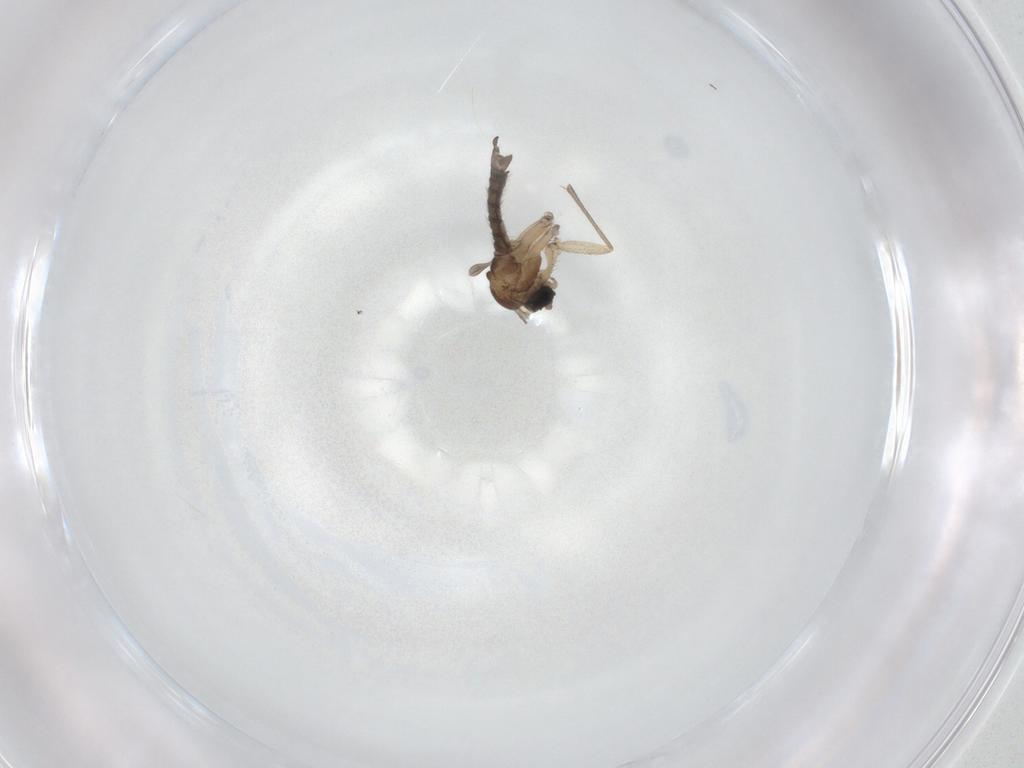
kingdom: Animalia
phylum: Arthropoda
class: Insecta
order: Diptera
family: Sciaridae
